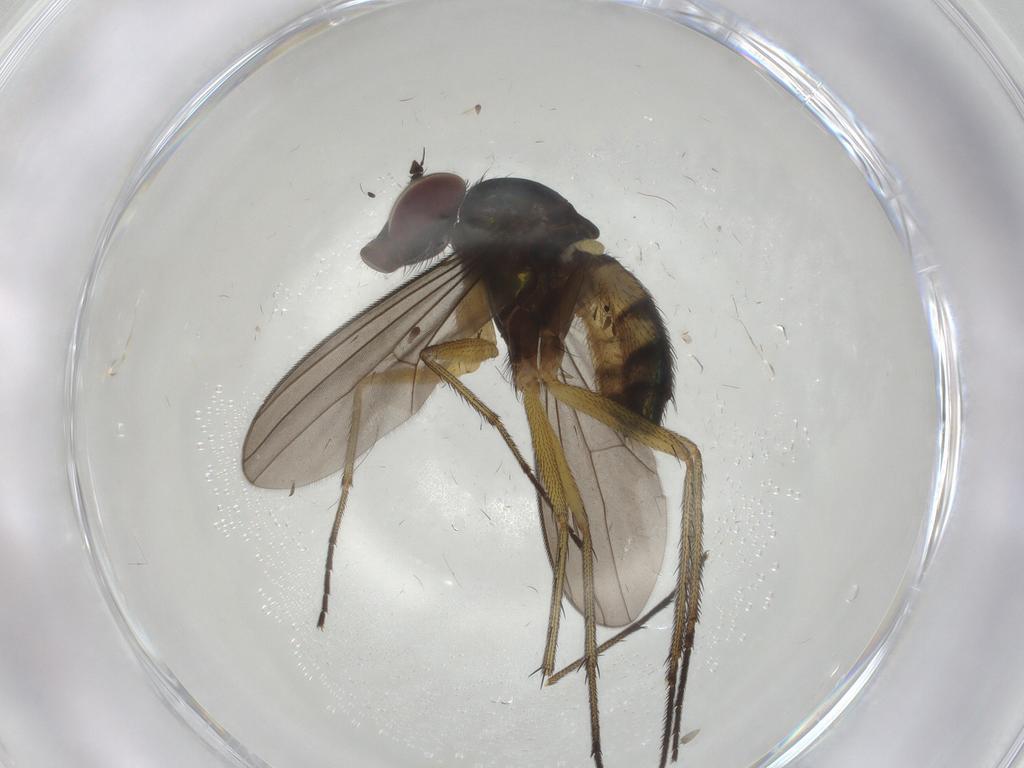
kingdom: Animalia
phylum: Arthropoda
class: Insecta
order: Diptera
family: Dolichopodidae
